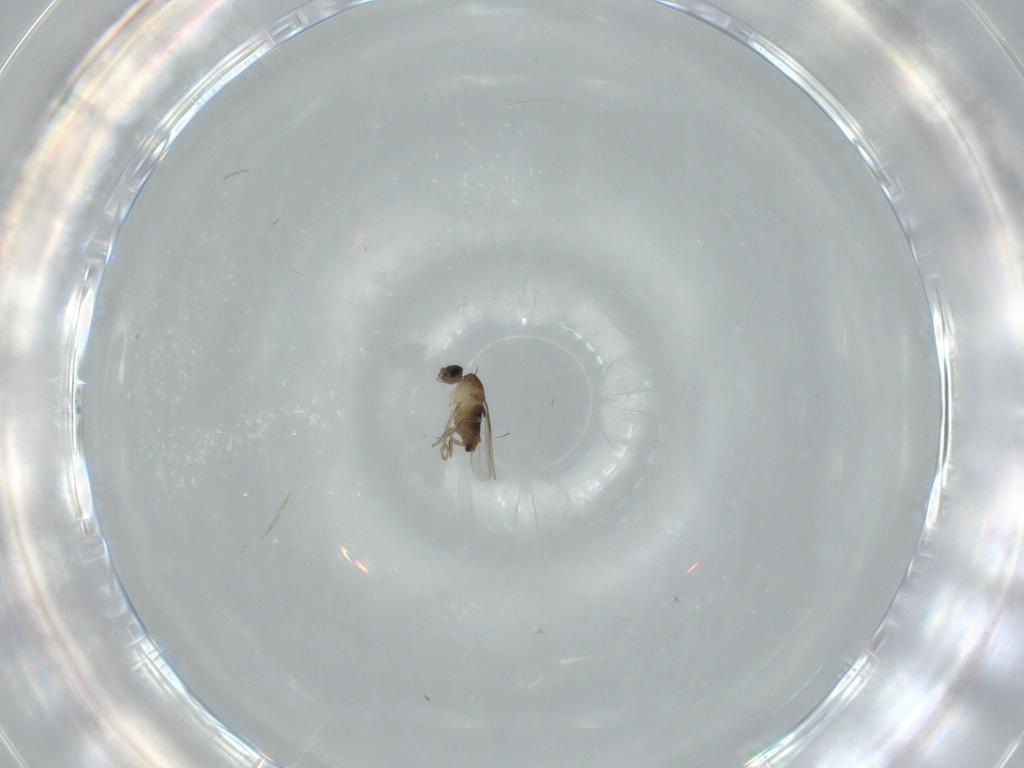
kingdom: Animalia
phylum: Arthropoda
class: Insecta
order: Diptera
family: Phoridae
